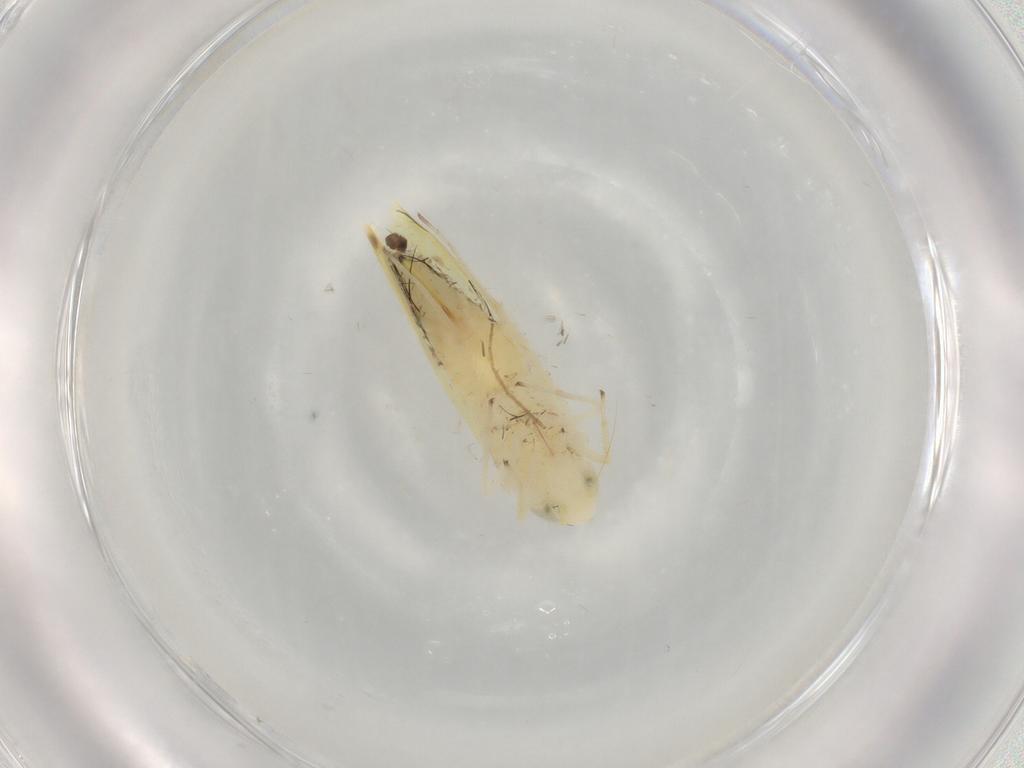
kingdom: Animalia
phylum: Arthropoda
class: Insecta
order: Hemiptera
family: Cicadellidae
